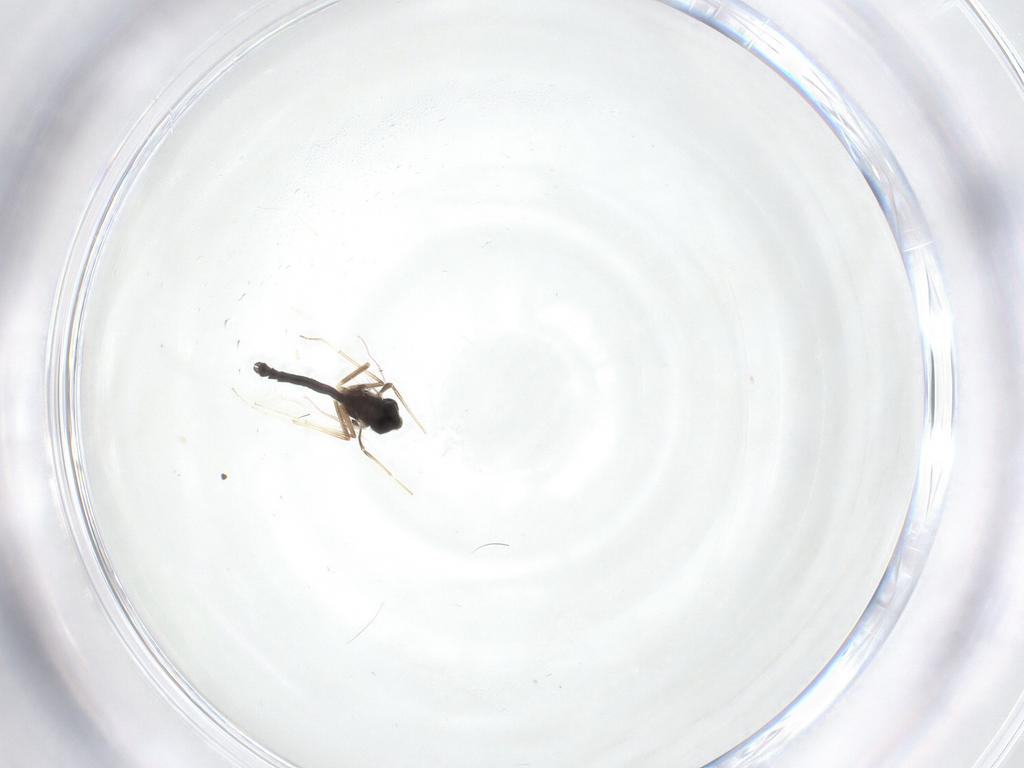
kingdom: Animalia
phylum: Arthropoda
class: Insecta
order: Diptera
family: Chironomidae
